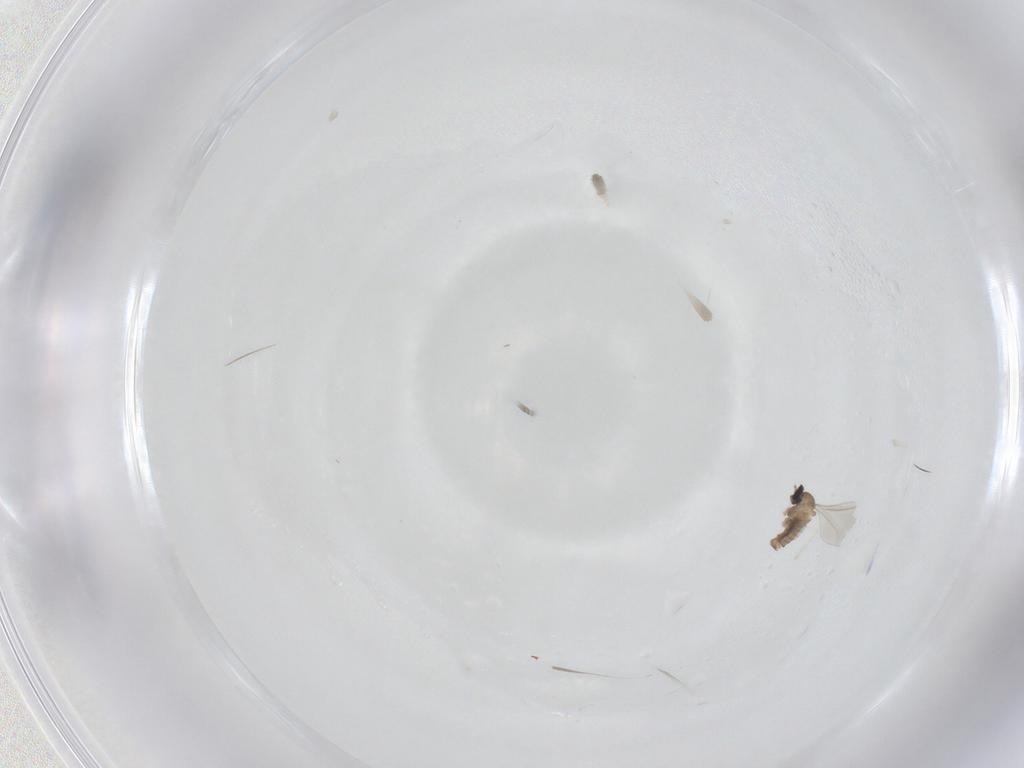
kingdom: Animalia
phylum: Arthropoda
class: Insecta
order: Diptera
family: Cecidomyiidae
